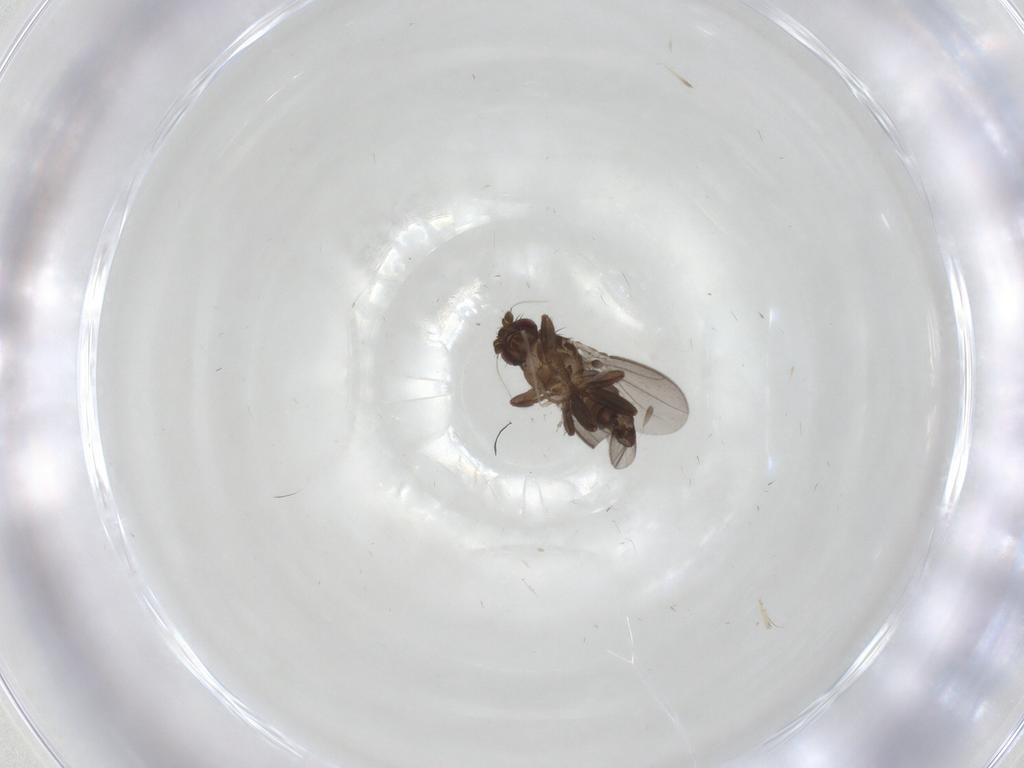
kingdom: Animalia
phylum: Arthropoda
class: Insecta
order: Diptera
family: Sphaeroceridae
